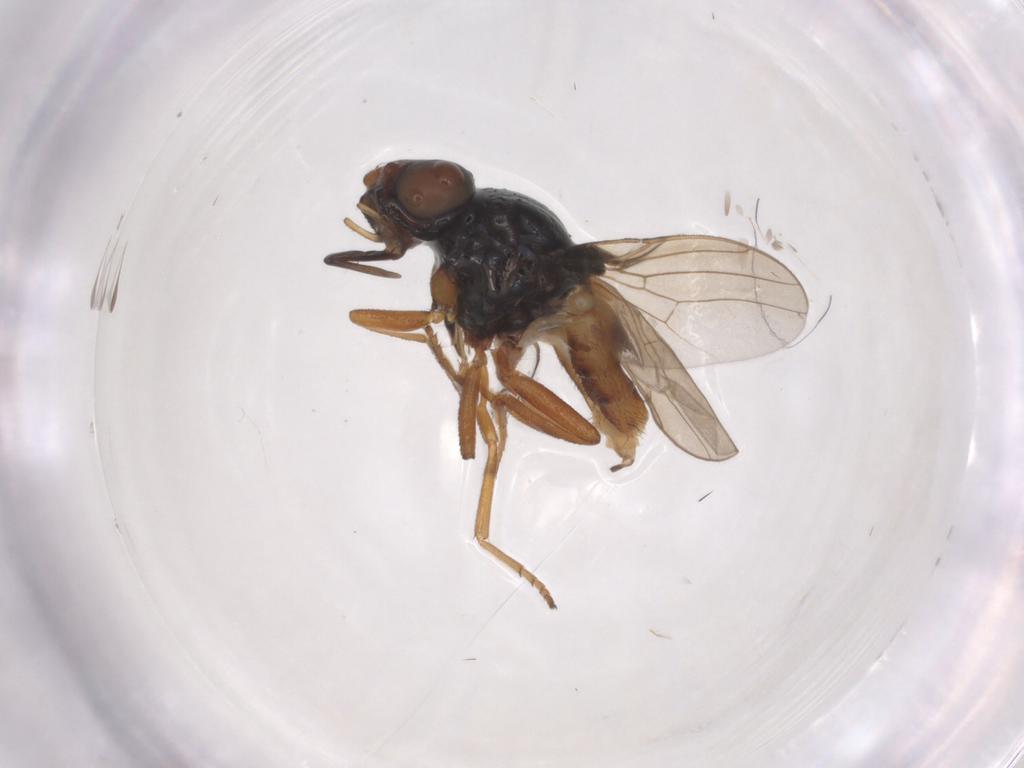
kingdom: Animalia
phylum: Arthropoda
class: Insecta
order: Diptera
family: Chloropidae
